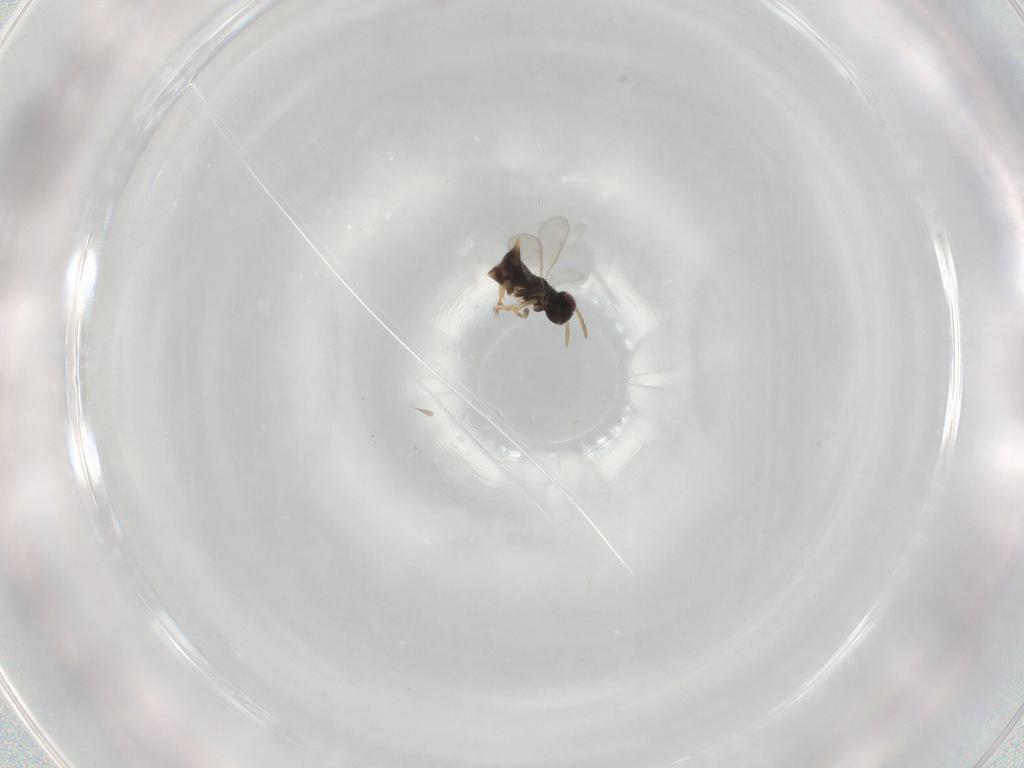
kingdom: Animalia
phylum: Arthropoda
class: Insecta
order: Hymenoptera
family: Aphelinidae
